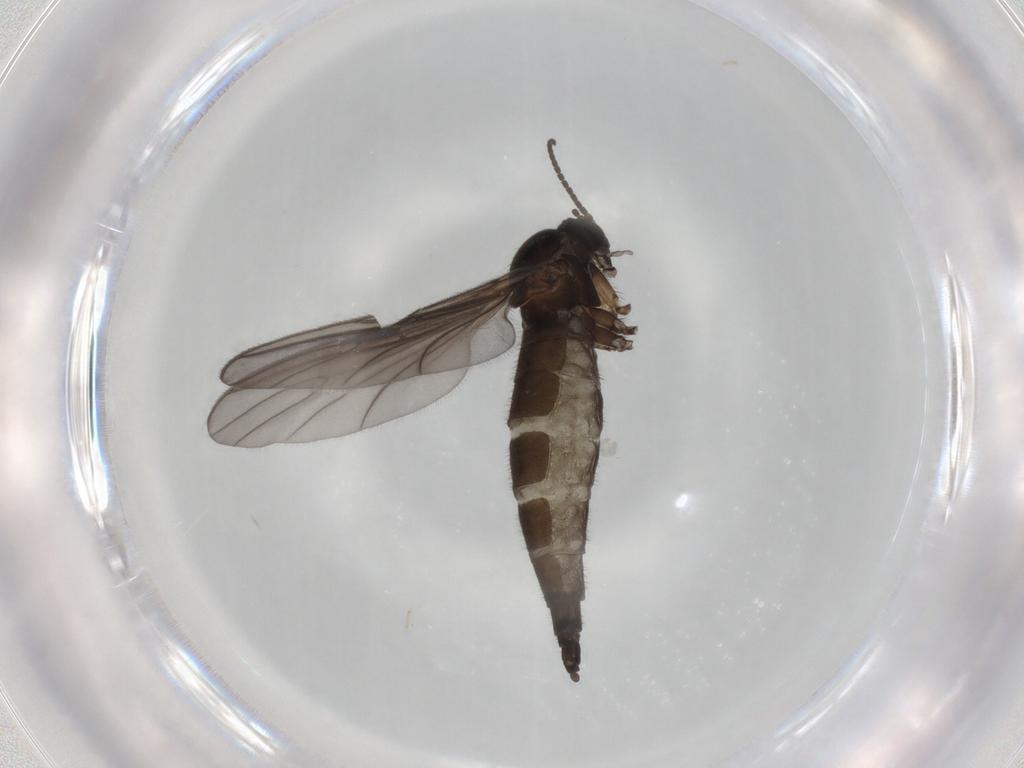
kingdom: Animalia
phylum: Arthropoda
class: Insecta
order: Diptera
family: Sciaridae
